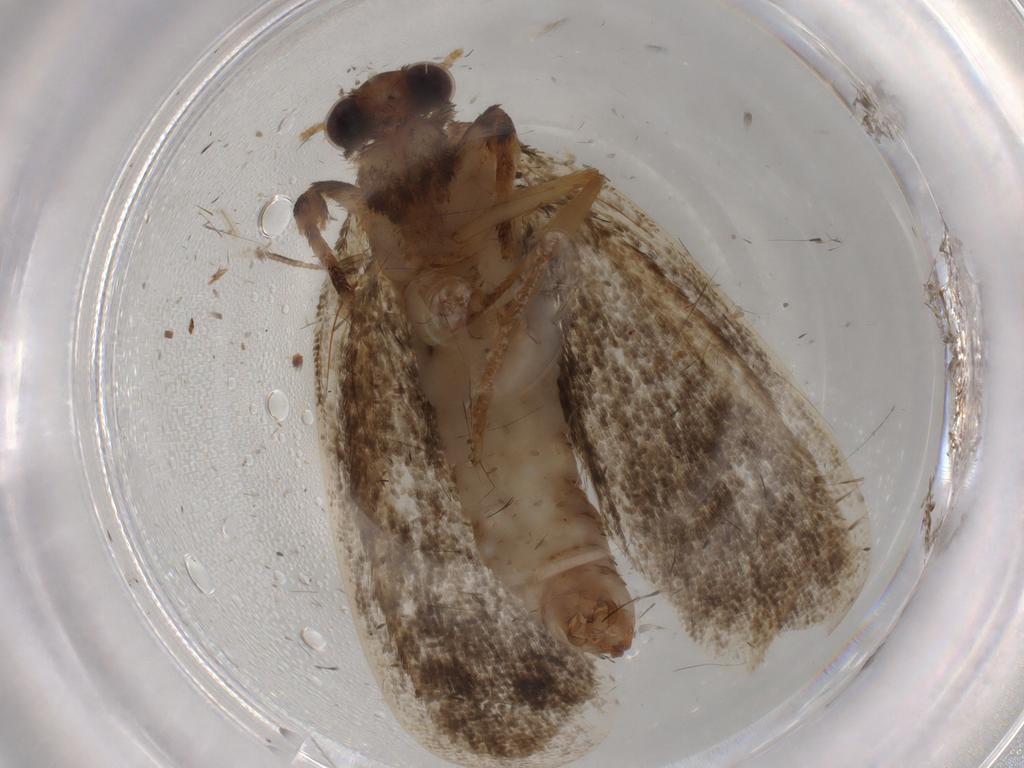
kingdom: Animalia
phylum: Arthropoda
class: Insecta
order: Lepidoptera
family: Tineidae
